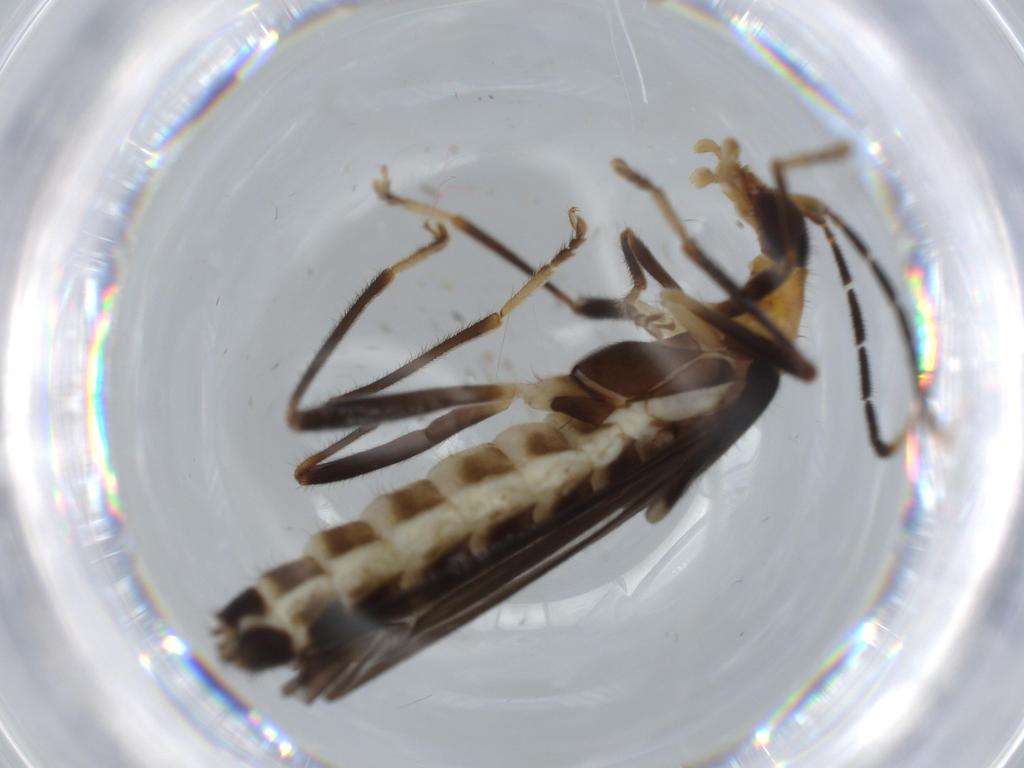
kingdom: Animalia
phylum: Arthropoda
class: Insecta
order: Coleoptera
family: Cantharidae
